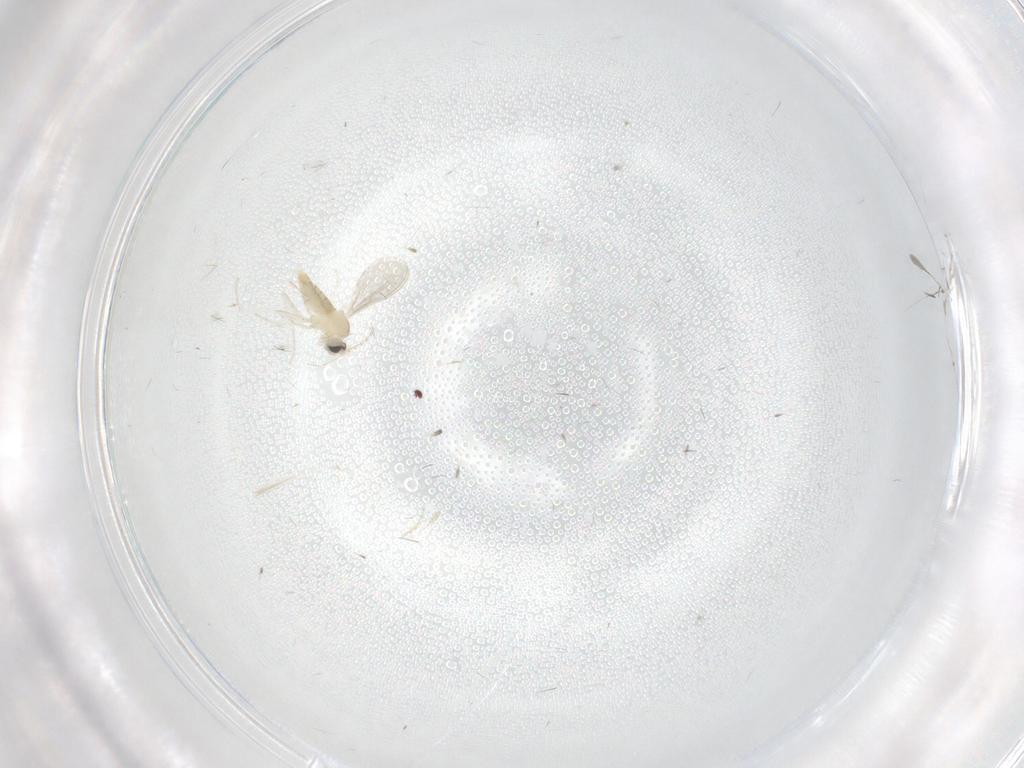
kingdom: Animalia
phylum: Arthropoda
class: Insecta
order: Diptera
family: Cecidomyiidae
